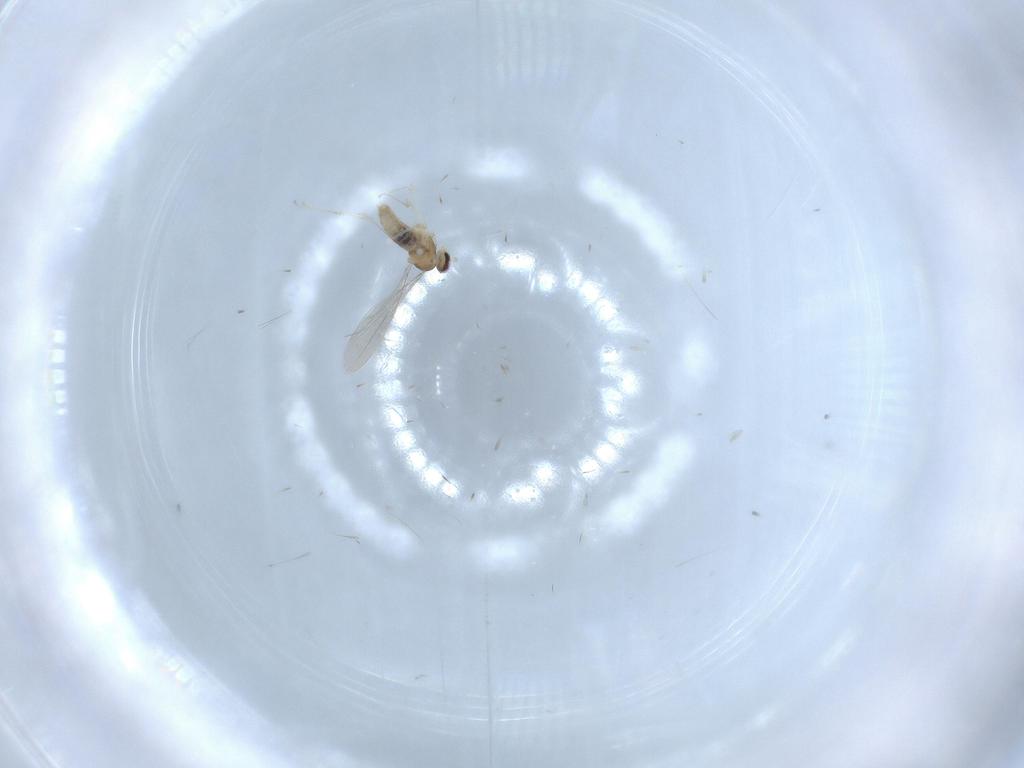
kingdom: Animalia
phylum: Arthropoda
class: Insecta
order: Diptera
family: Cecidomyiidae
